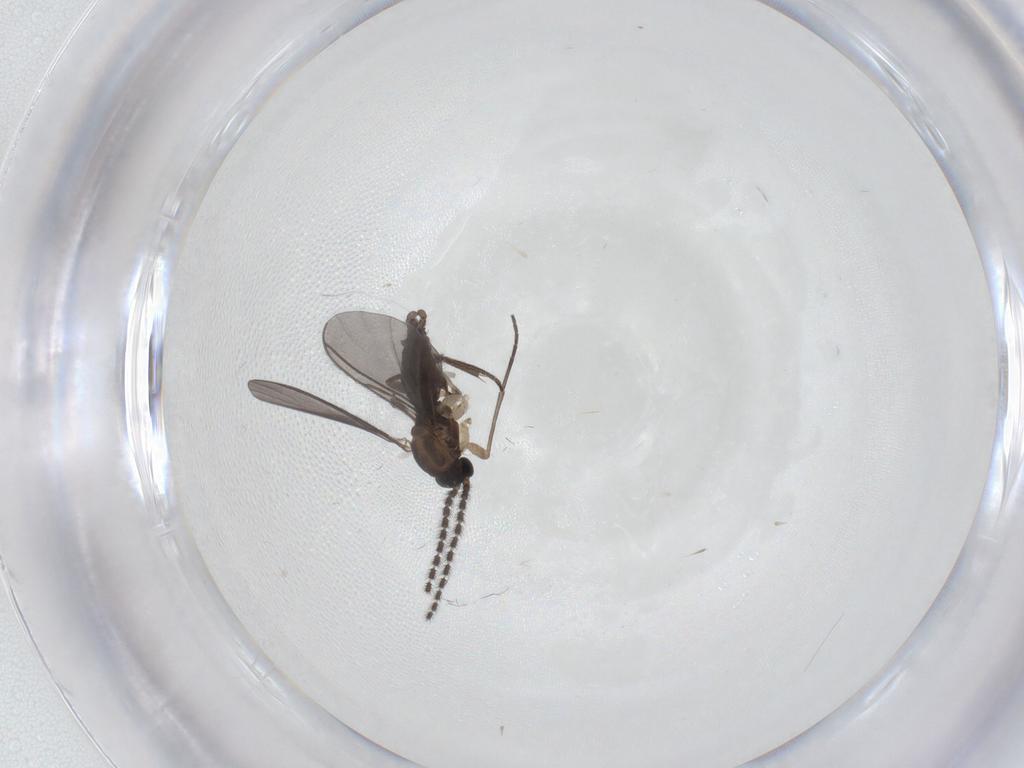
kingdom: Animalia
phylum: Arthropoda
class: Insecta
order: Diptera
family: Sciaridae
